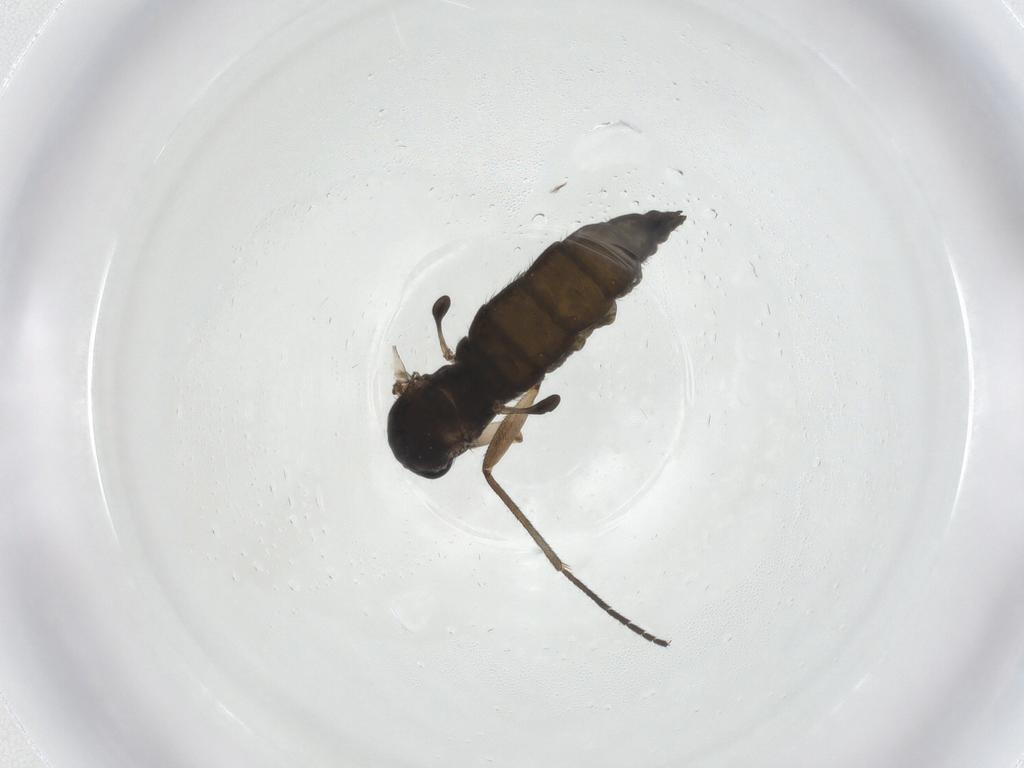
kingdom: Animalia
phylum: Arthropoda
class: Insecta
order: Diptera
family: Sciaridae
